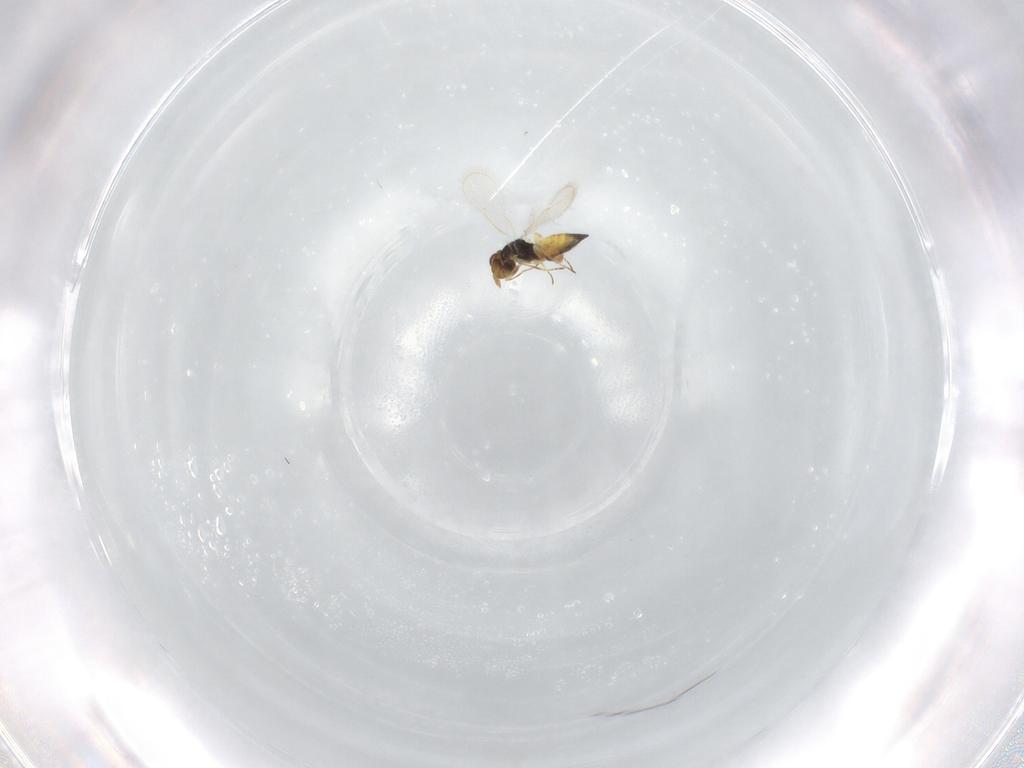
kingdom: Animalia
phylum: Arthropoda
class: Insecta
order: Hymenoptera
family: Eulophidae
